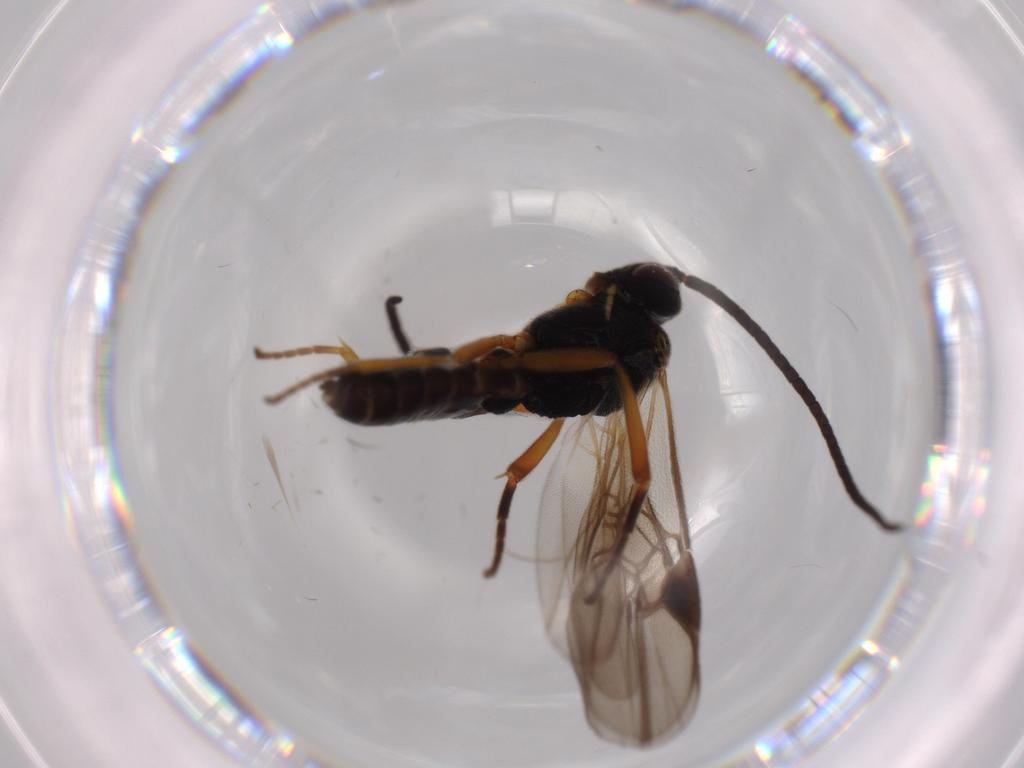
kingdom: Animalia
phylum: Arthropoda
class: Insecta
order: Hymenoptera
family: Braconidae
